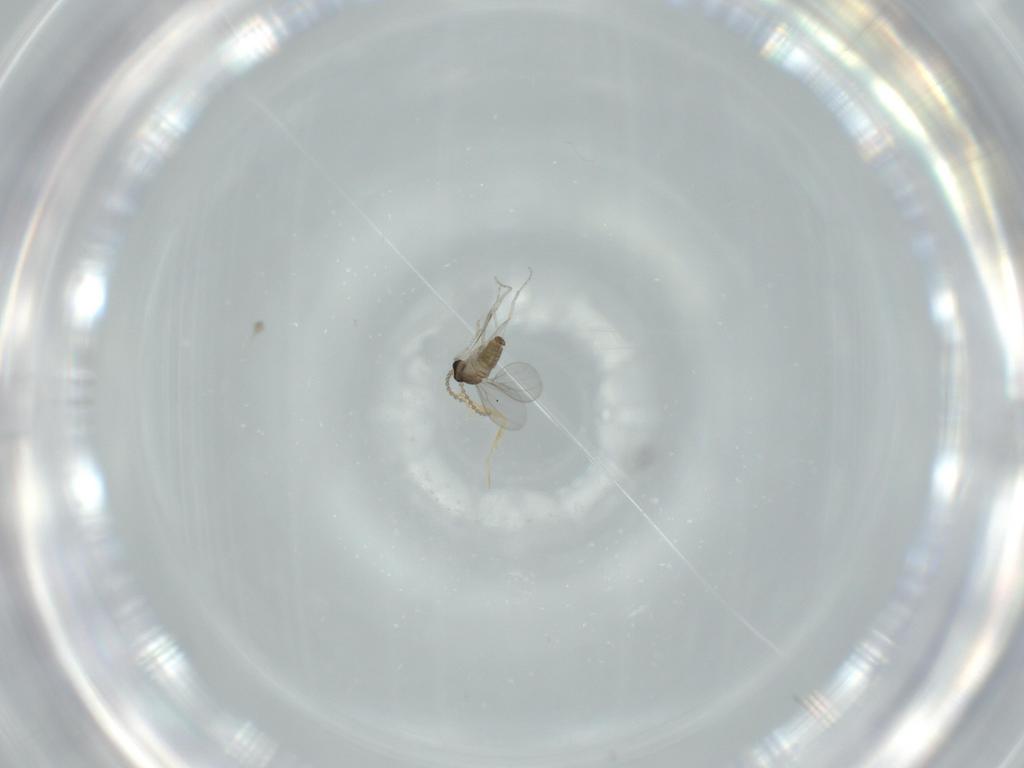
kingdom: Animalia
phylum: Arthropoda
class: Insecta
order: Diptera
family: Cecidomyiidae
